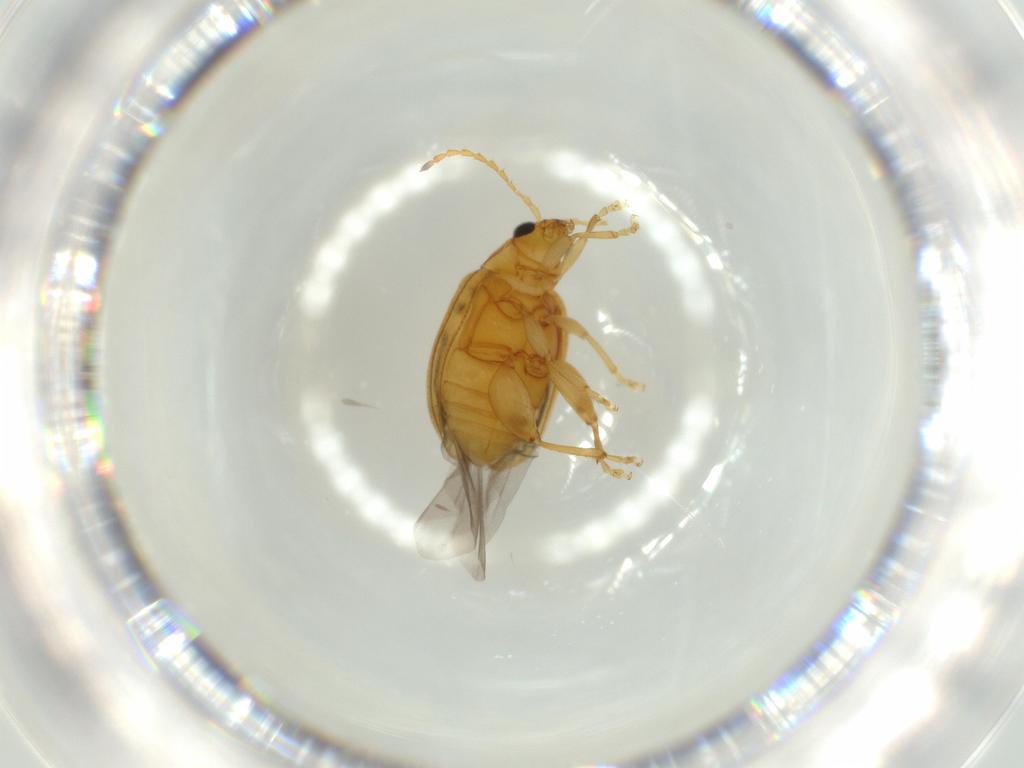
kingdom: Animalia
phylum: Arthropoda
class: Insecta
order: Coleoptera
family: Chrysomelidae
